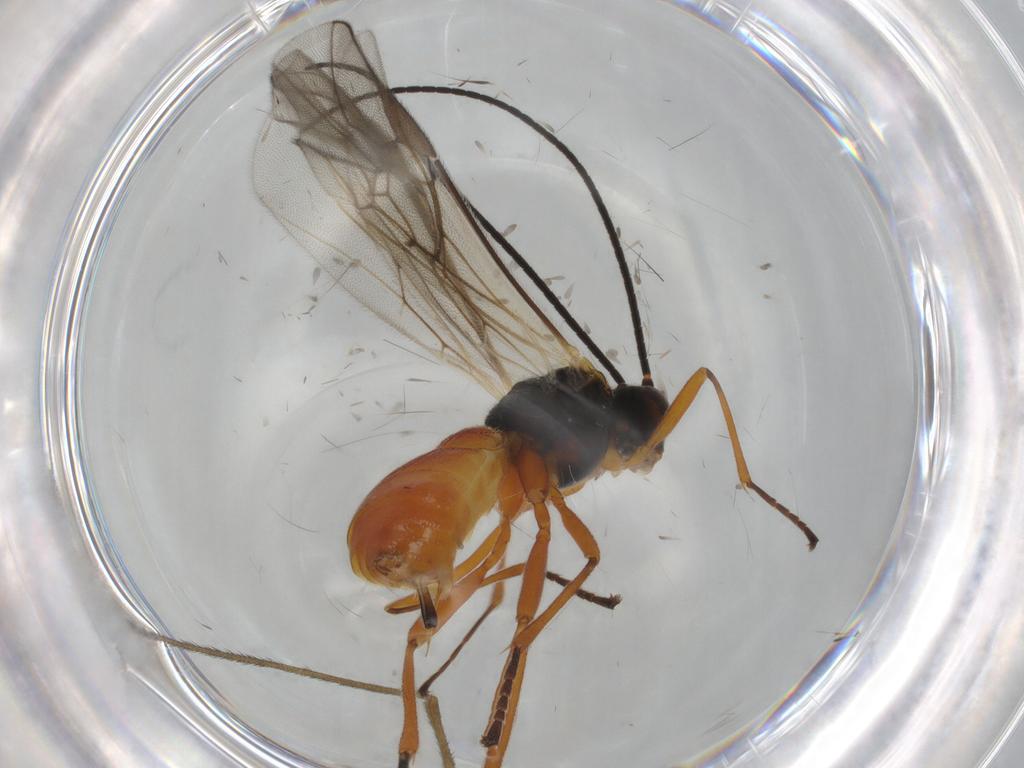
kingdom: Animalia
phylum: Arthropoda
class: Insecta
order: Hymenoptera
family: Braconidae
